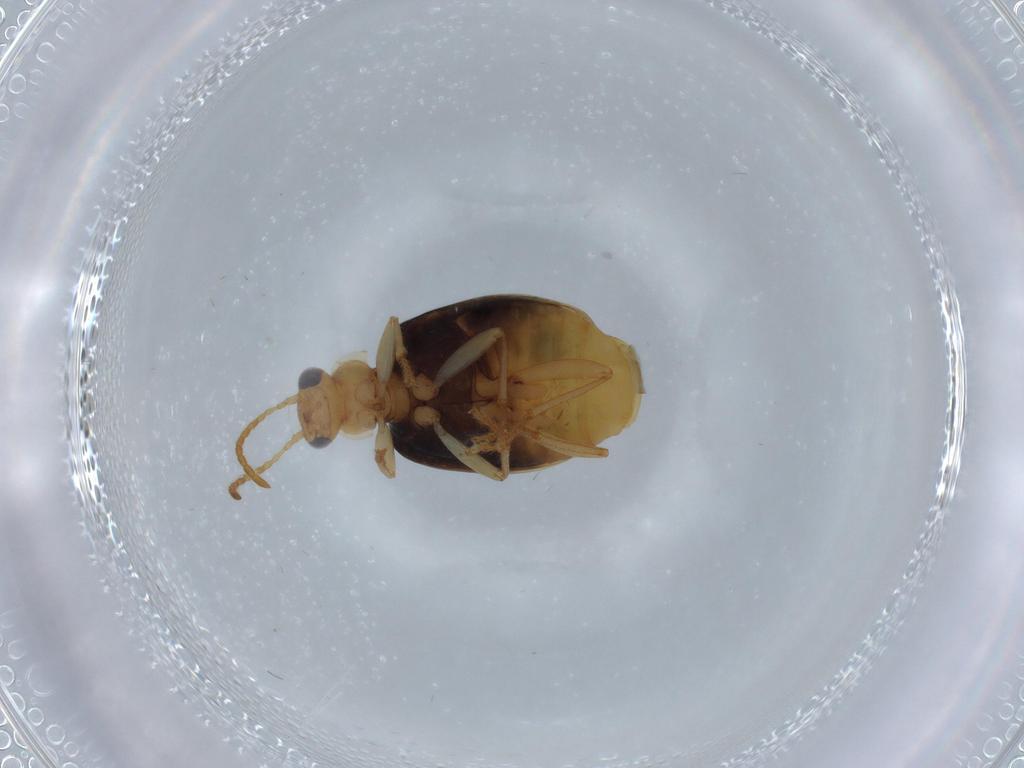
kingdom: Animalia
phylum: Arthropoda
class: Insecta
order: Coleoptera
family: Carabidae
